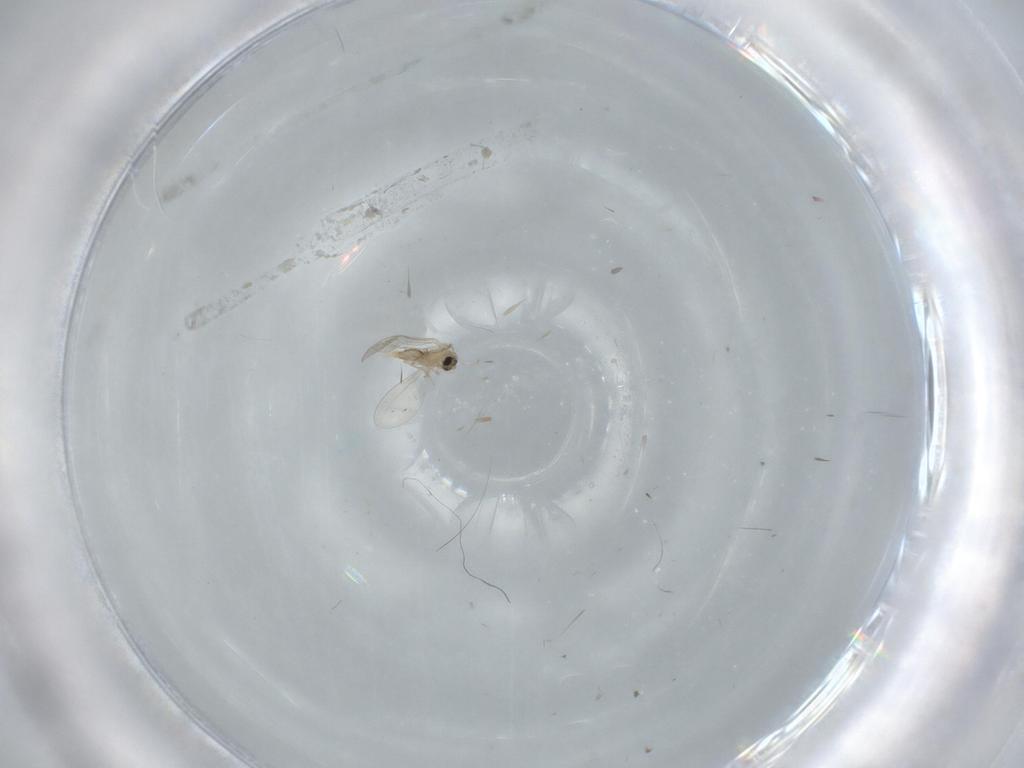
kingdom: Animalia
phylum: Arthropoda
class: Insecta
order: Diptera
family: Cecidomyiidae
